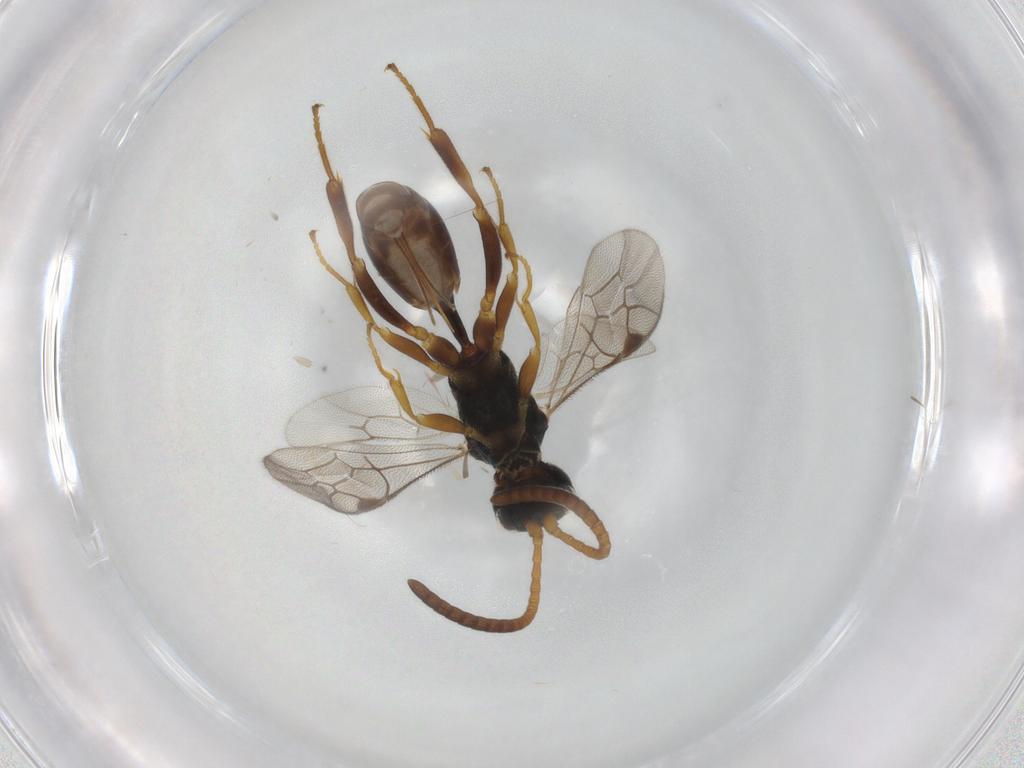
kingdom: Animalia
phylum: Arthropoda
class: Insecta
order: Hymenoptera
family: Ichneumonidae
